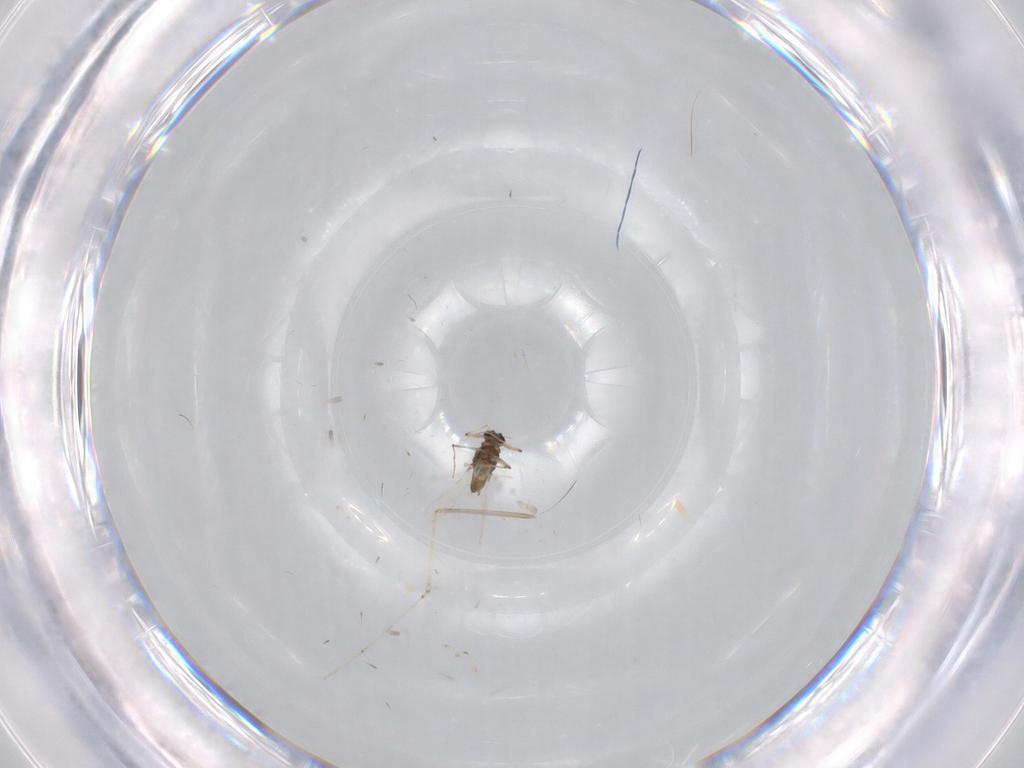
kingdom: Animalia
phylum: Arthropoda
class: Insecta
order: Diptera
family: Chironomidae
